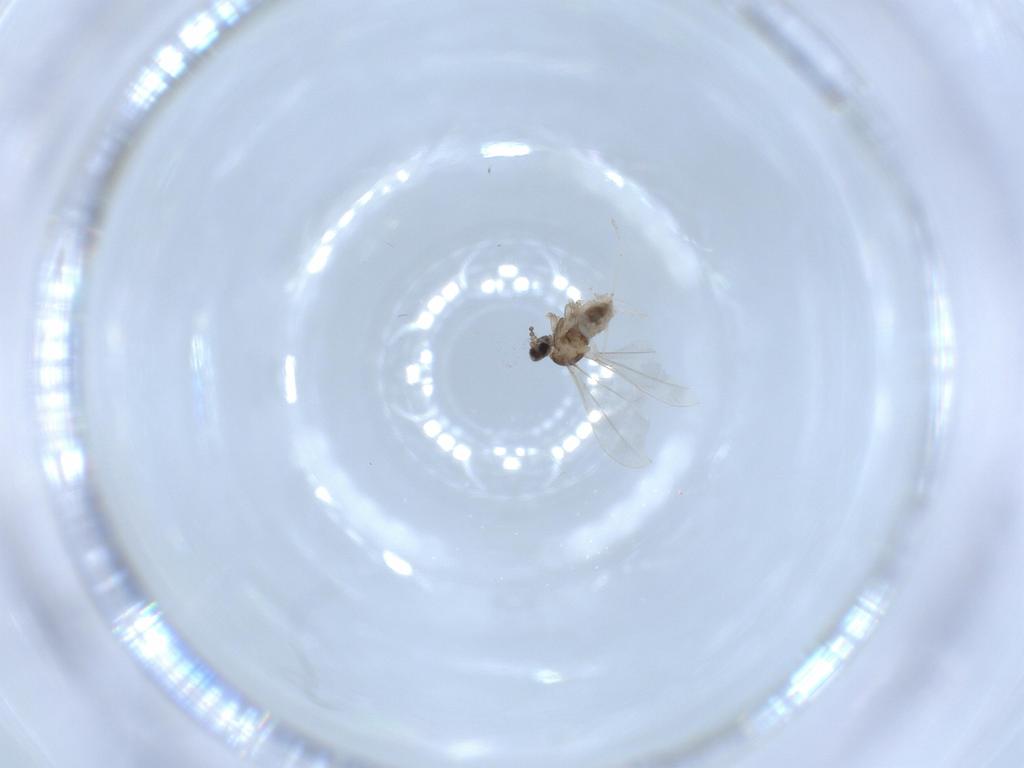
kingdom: Animalia
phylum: Arthropoda
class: Insecta
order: Diptera
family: Cecidomyiidae
